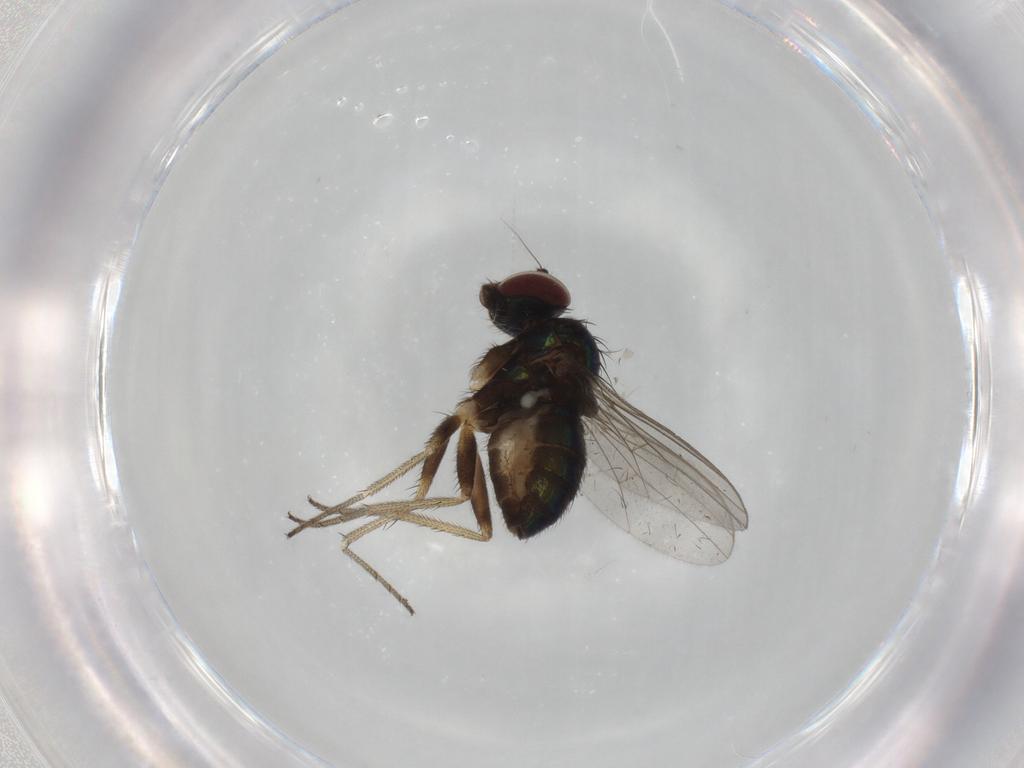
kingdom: Animalia
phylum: Arthropoda
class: Insecta
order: Diptera
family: Dolichopodidae
